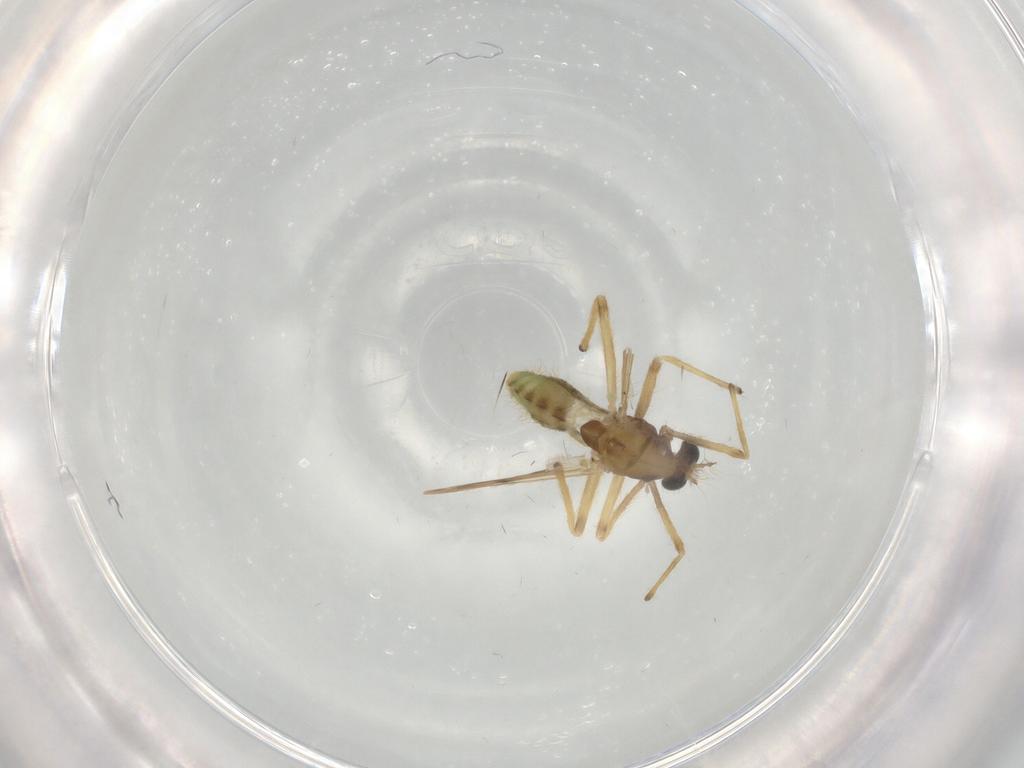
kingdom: Animalia
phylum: Arthropoda
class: Insecta
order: Diptera
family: Chironomidae
